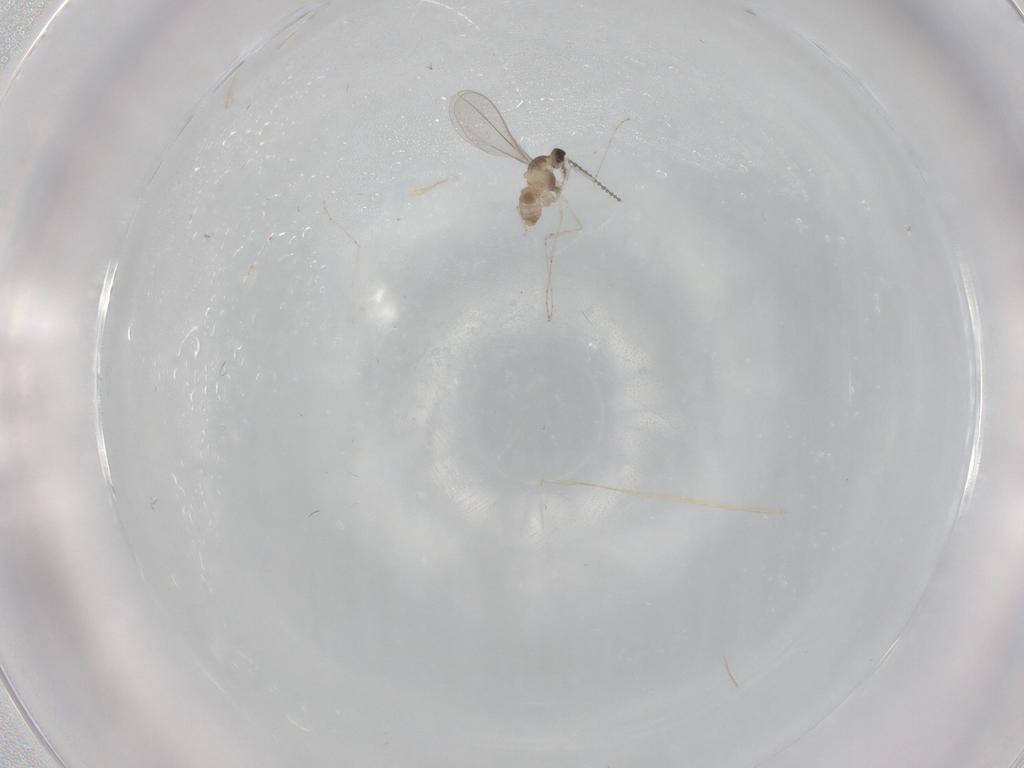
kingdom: Animalia
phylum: Arthropoda
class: Insecta
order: Diptera
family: Cecidomyiidae
